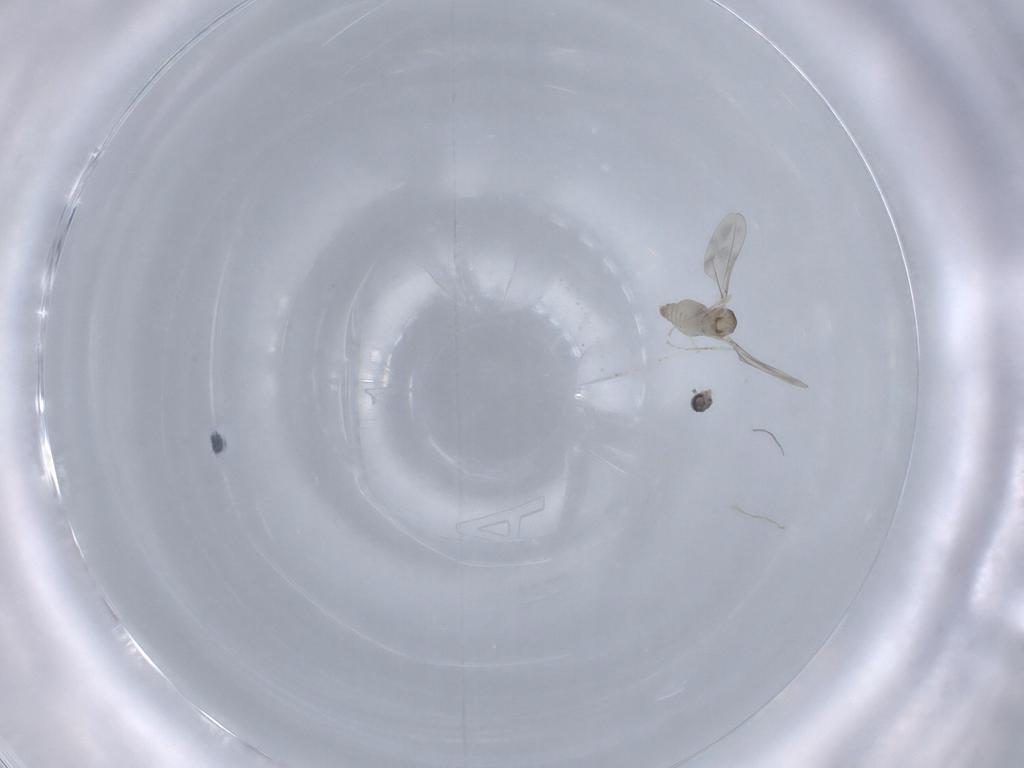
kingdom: Animalia
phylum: Arthropoda
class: Insecta
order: Diptera
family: Cecidomyiidae
